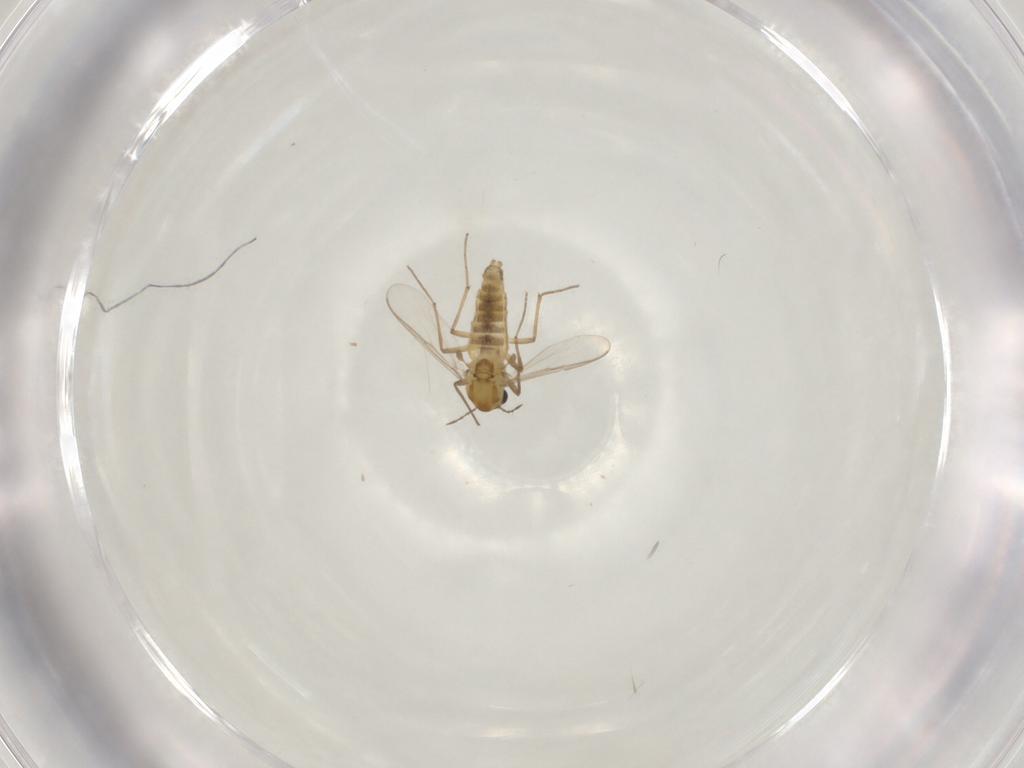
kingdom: Animalia
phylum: Arthropoda
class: Insecta
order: Diptera
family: Chironomidae
